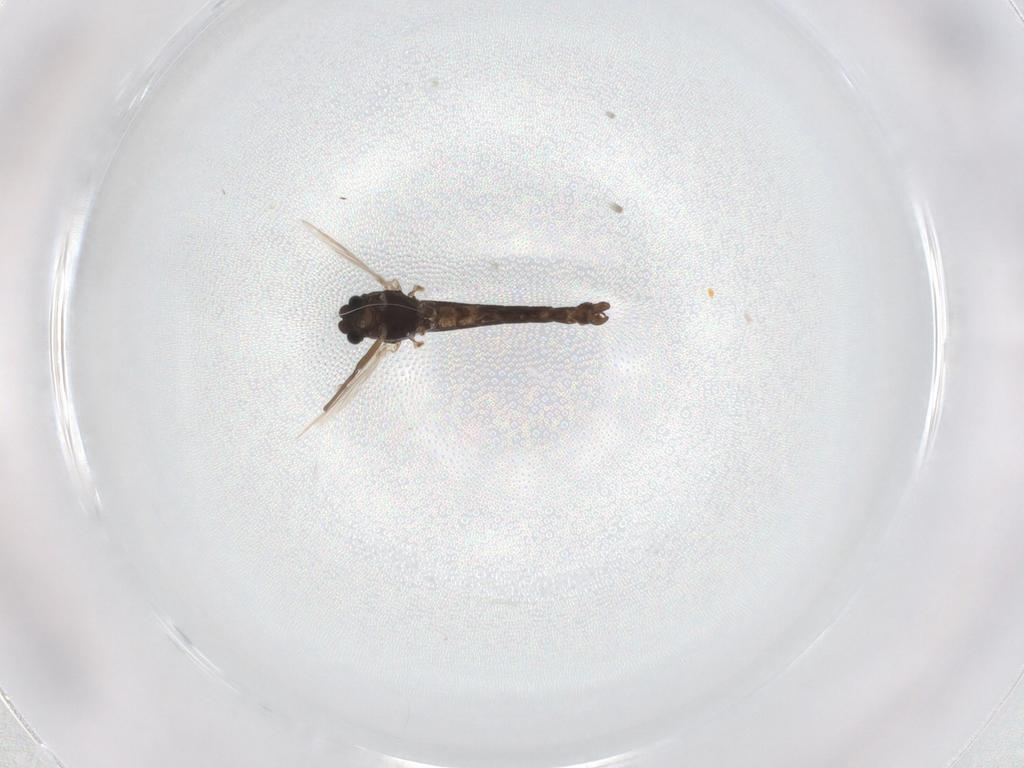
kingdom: Animalia
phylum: Arthropoda
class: Insecta
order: Diptera
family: Chironomidae
